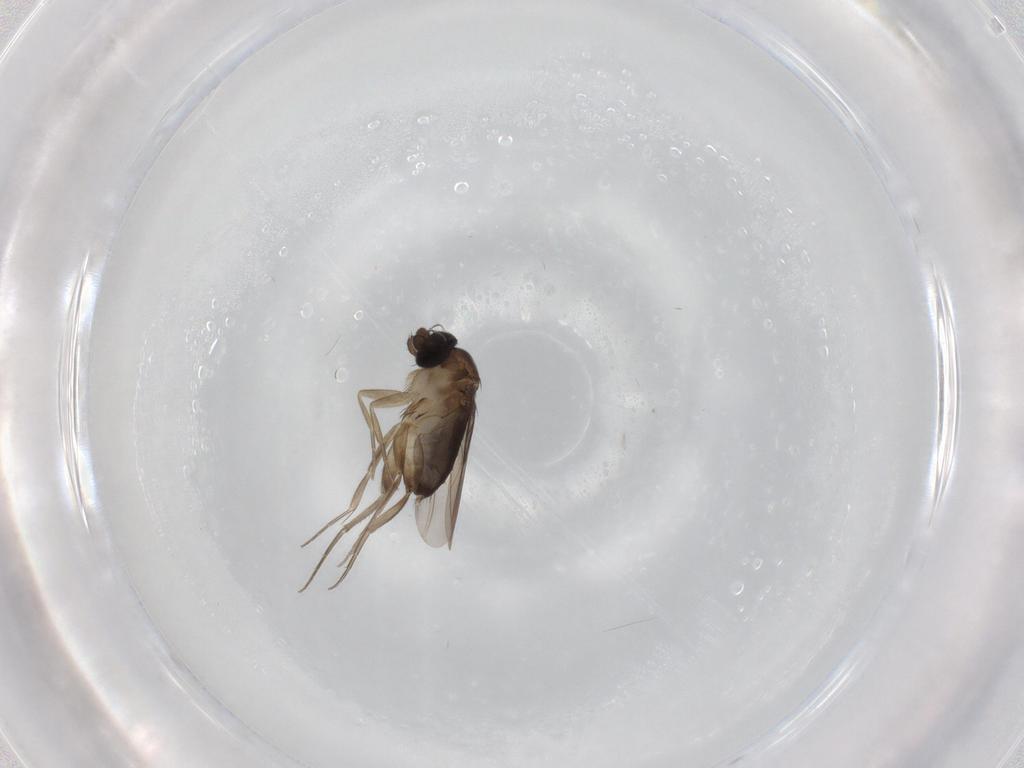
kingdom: Animalia
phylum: Arthropoda
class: Insecta
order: Diptera
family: Phoridae
